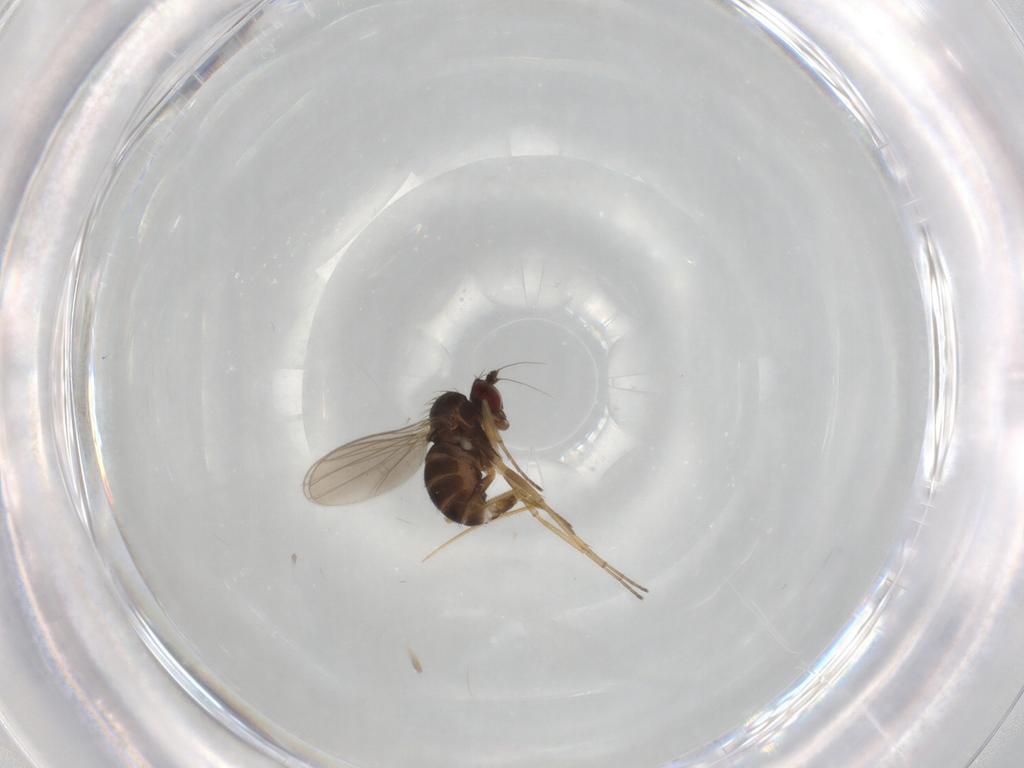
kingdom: Animalia
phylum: Arthropoda
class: Insecta
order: Diptera
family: Dolichopodidae
